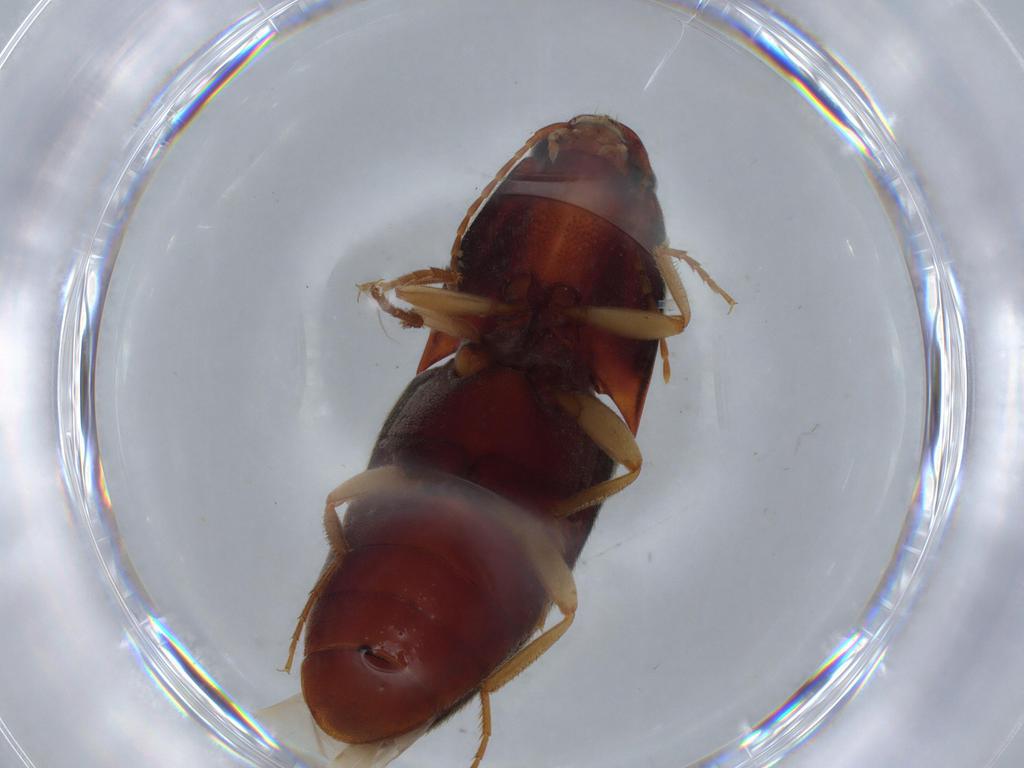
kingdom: Animalia
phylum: Arthropoda
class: Insecta
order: Coleoptera
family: Elateridae
